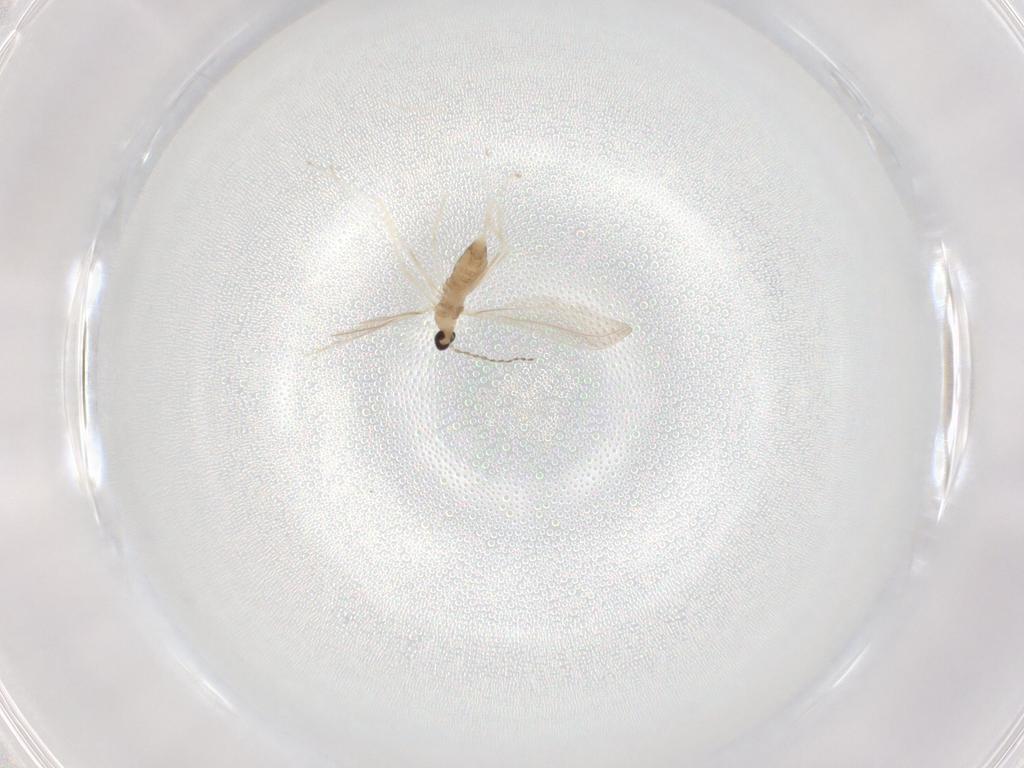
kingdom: Animalia
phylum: Arthropoda
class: Insecta
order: Diptera
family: Cecidomyiidae
